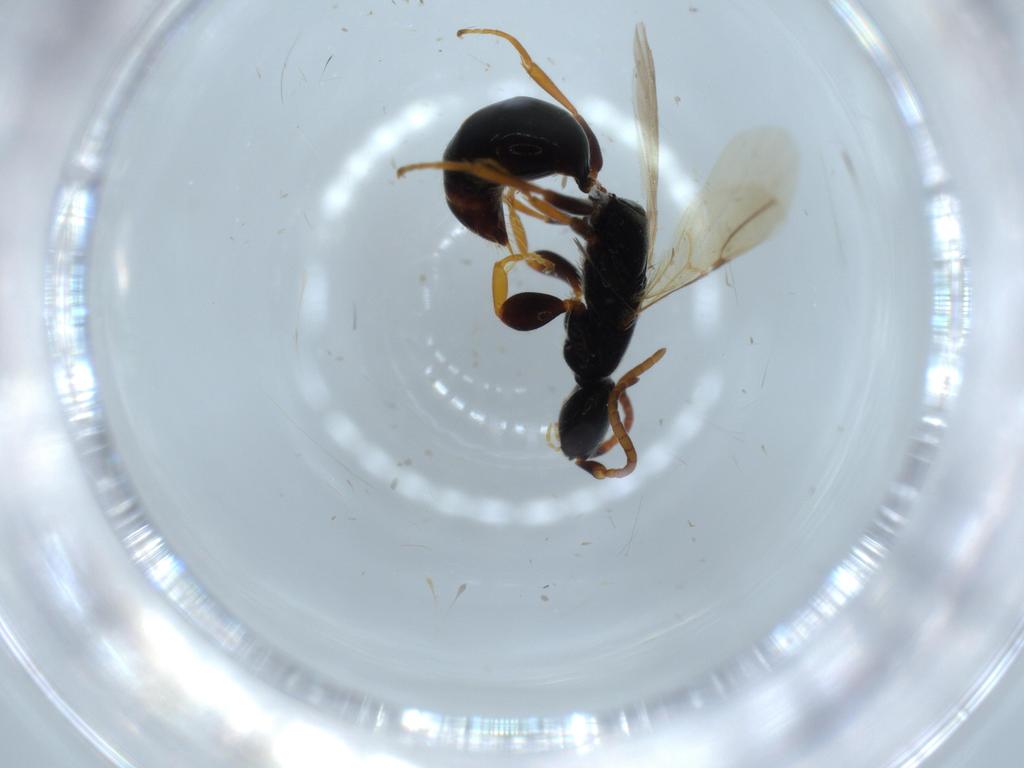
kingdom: Animalia
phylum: Arthropoda
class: Insecta
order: Hymenoptera
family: Bethylidae
